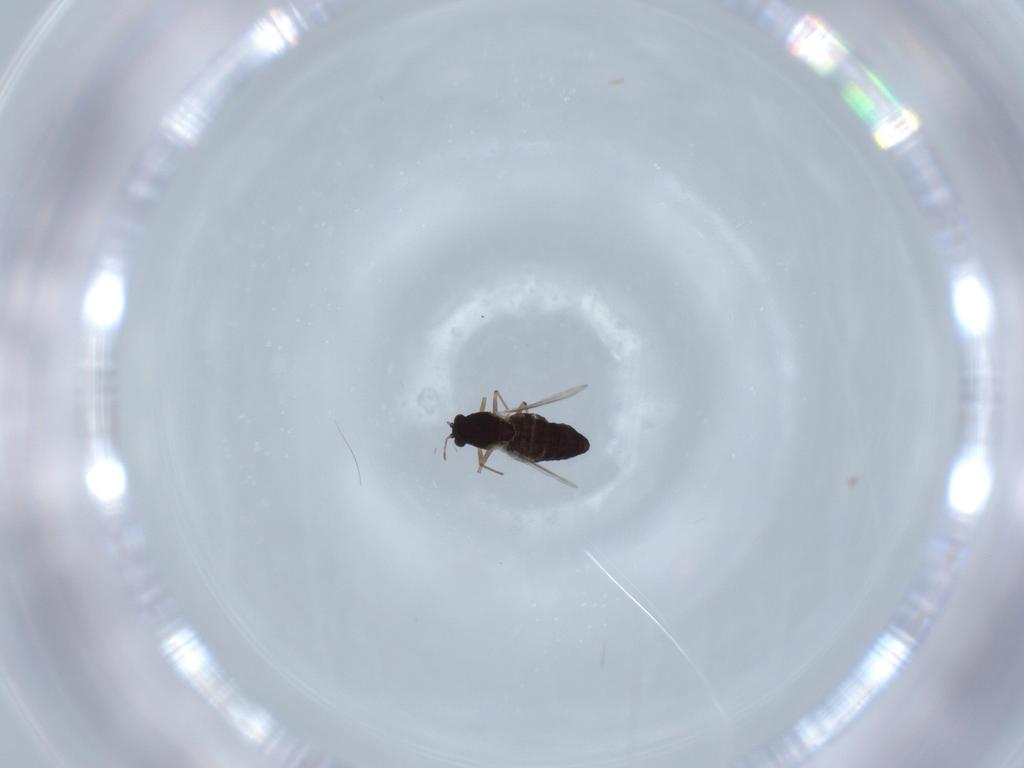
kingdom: Animalia
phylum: Arthropoda
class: Insecta
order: Diptera
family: Chironomidae
